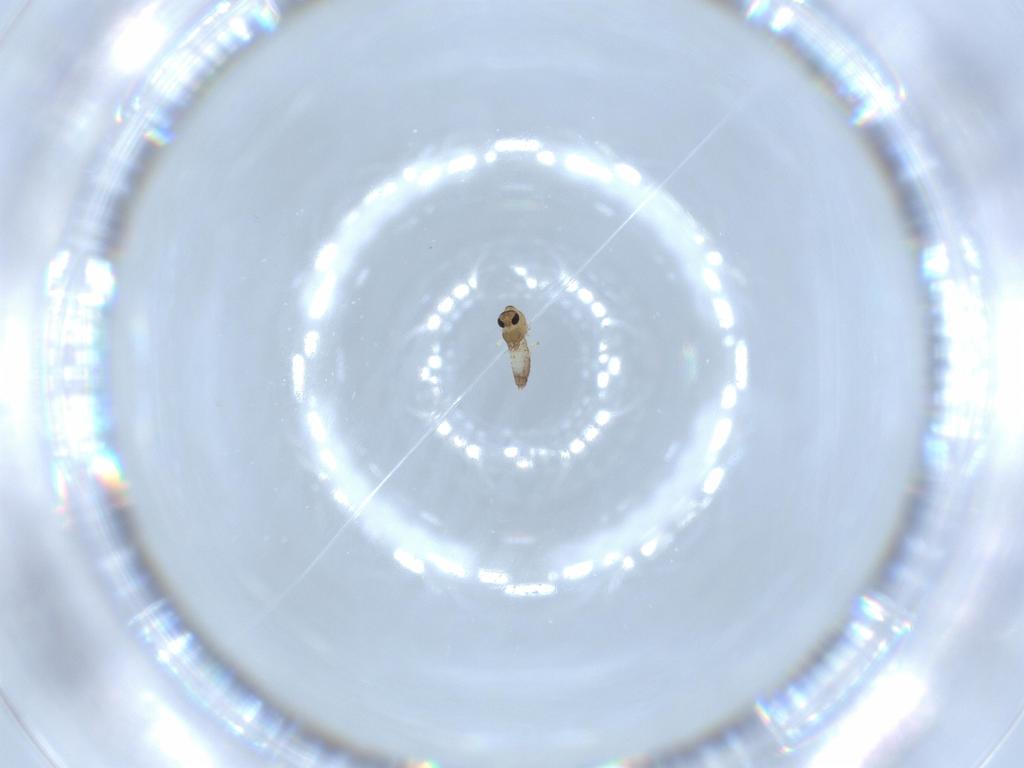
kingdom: Animalia
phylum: Arthropoda
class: Insecta
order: Diptera
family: Chironomidae
